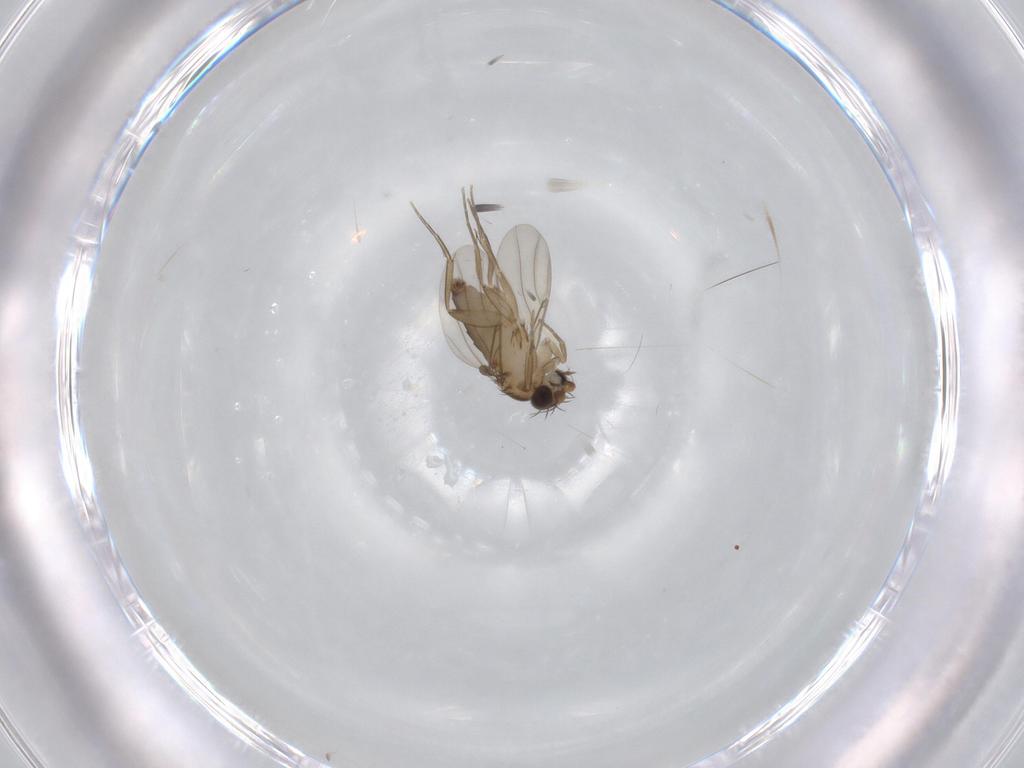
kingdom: Animalia
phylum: Arthropoda
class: Insecta
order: Diptera
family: Phoridae
